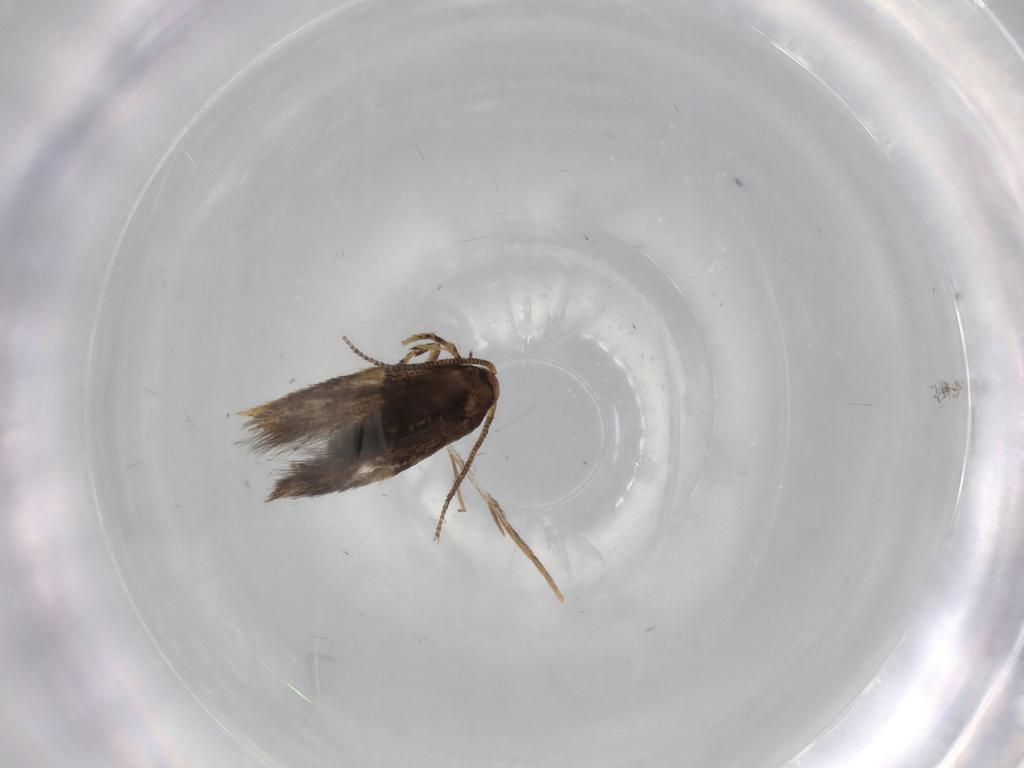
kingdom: Animalia
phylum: Arthropoda
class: Insecta
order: Lepidoptera
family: Tineidae
